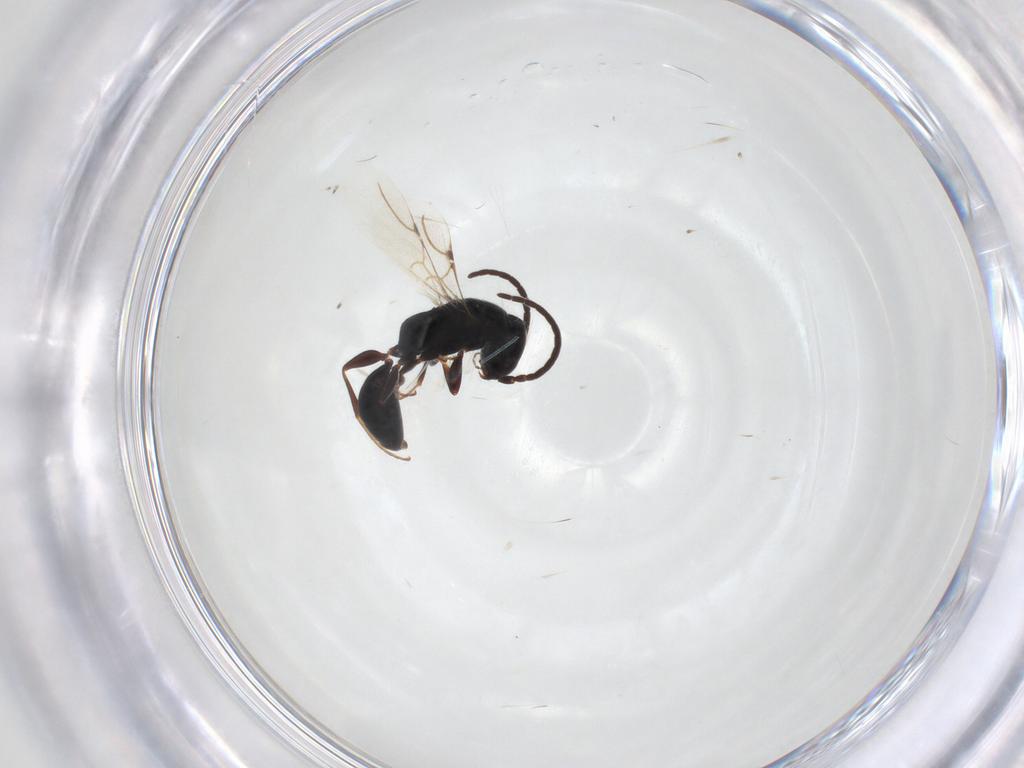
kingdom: Animalia
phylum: Arthropoda
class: Insecta
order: Hymenoptera
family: Bethylidae
